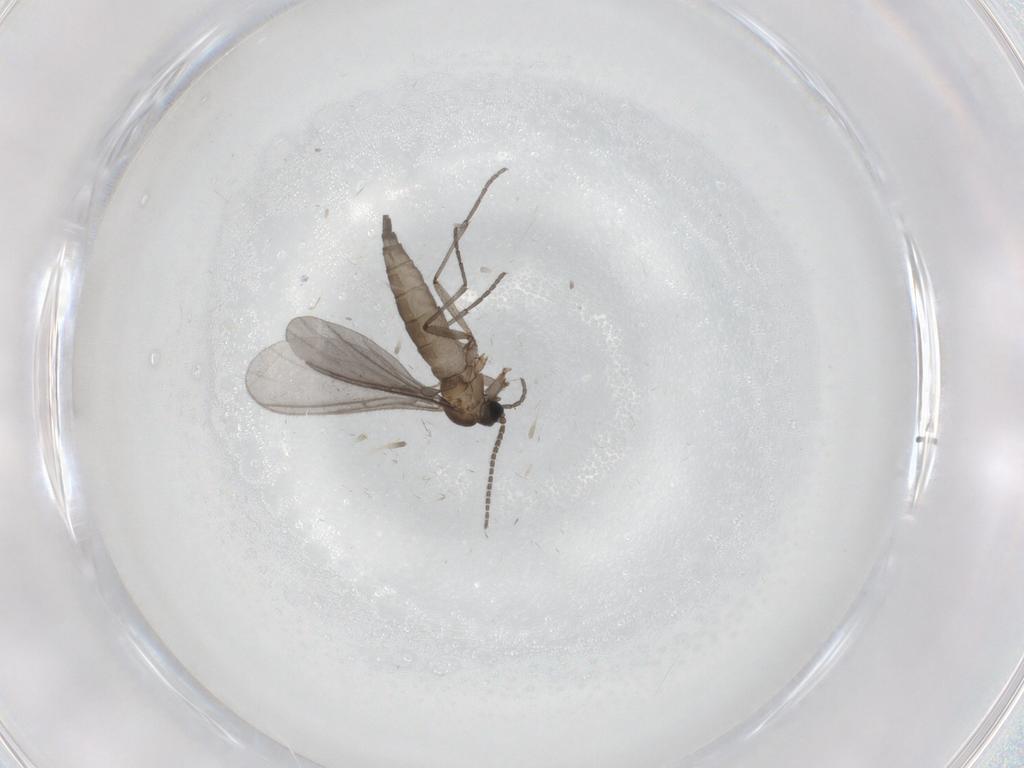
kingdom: Animalia
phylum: Arthropoda
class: Insecta
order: Diptera
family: Sciaridae
